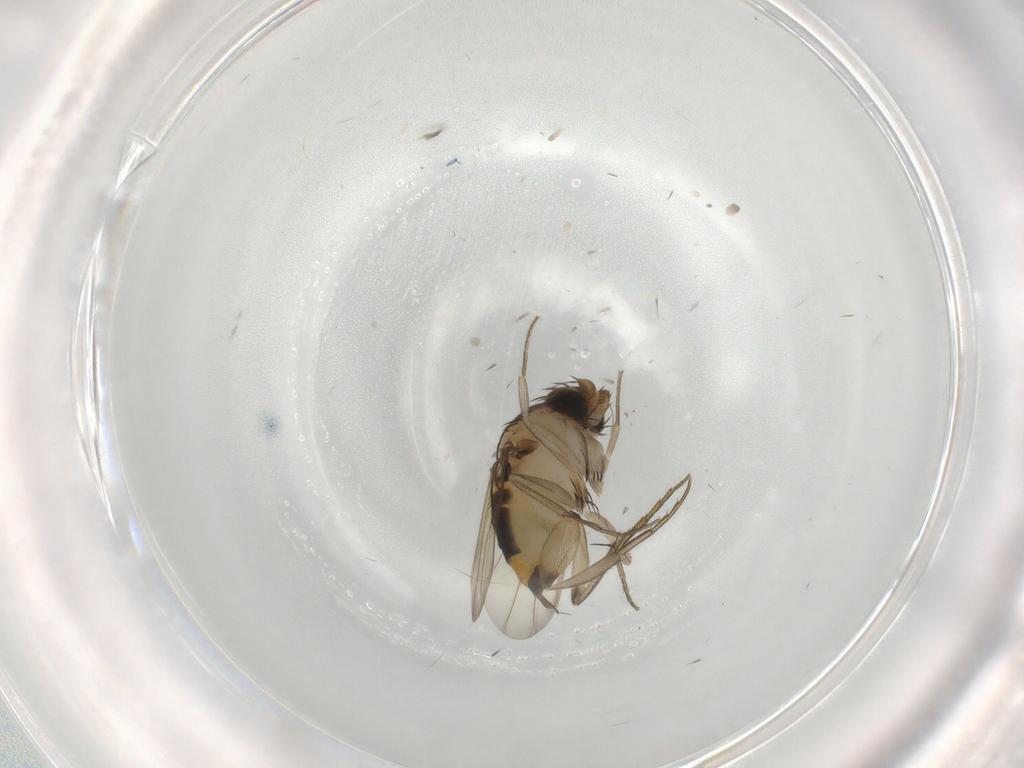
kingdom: Animalia
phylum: Arthropoda
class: Insecta
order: Diptera
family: Phoridae
